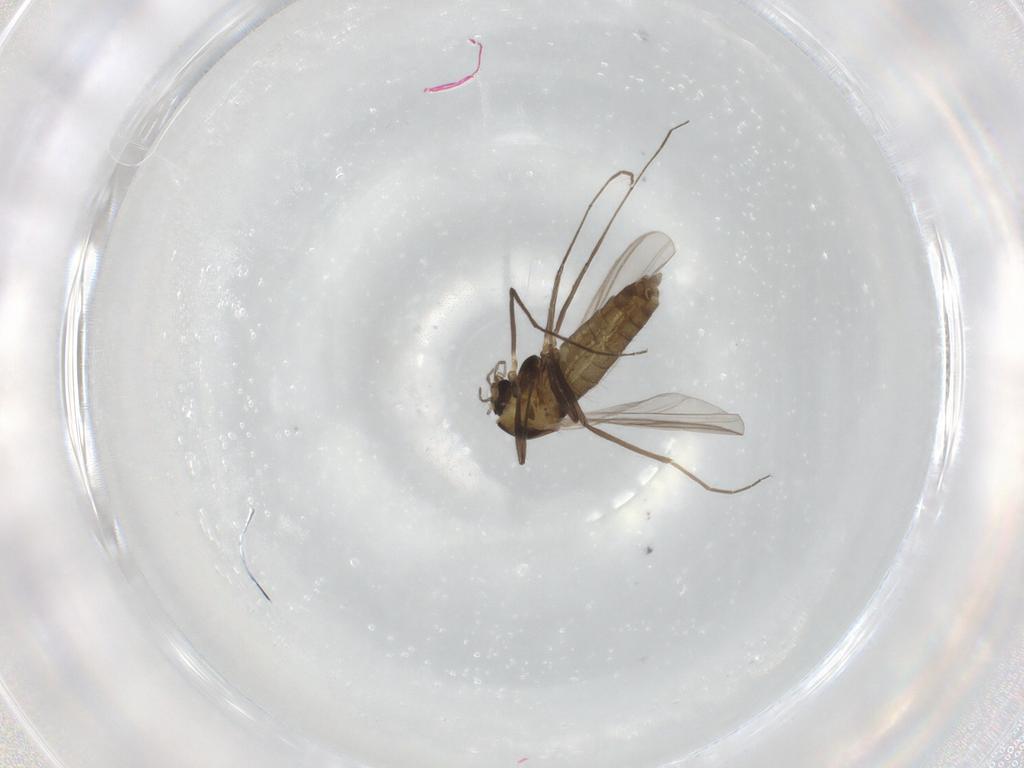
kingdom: Animalia
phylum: Arthropoda
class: Insecta
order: Diptera
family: Chironomidae
